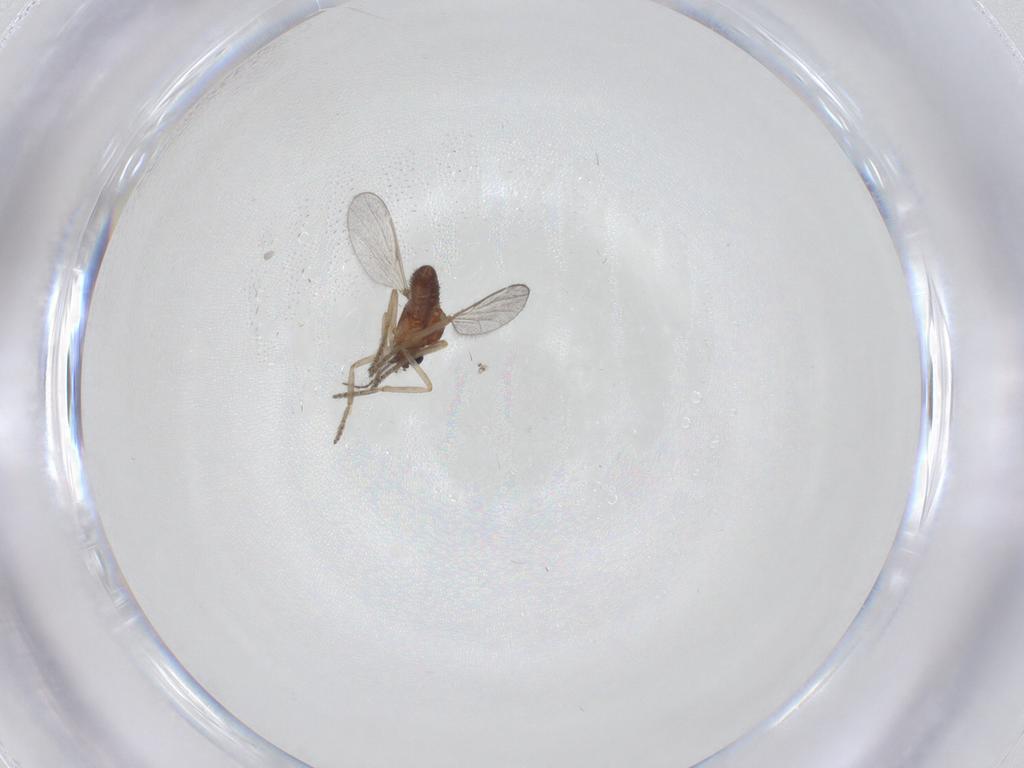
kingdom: Animalia
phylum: Arthropoda
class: Insecta
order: Diptera
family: Ceratopogonidae
